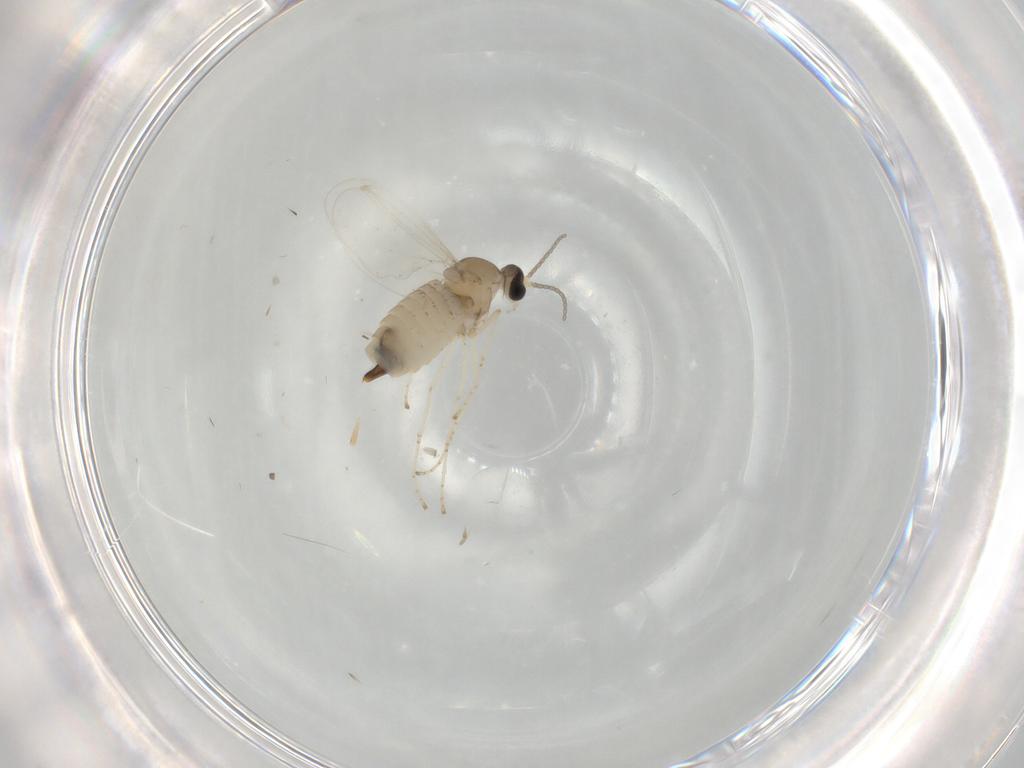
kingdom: Animalia
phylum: Arthropoda
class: Insecta
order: Diptera
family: Cecidomyiidae
